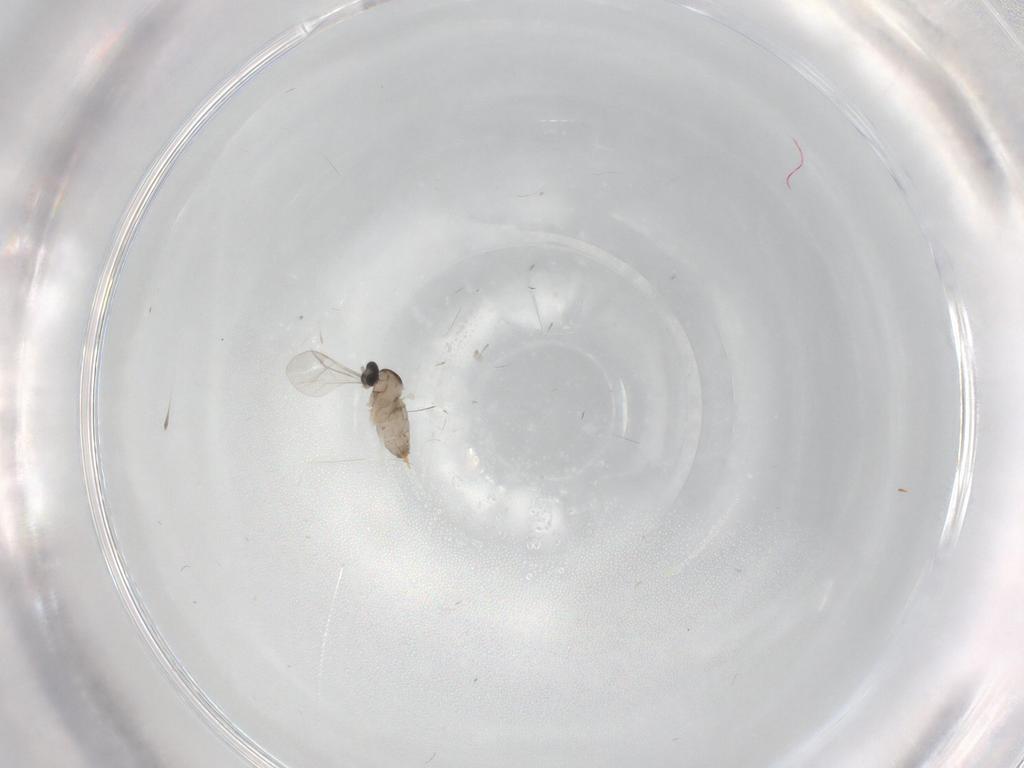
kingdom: Animalia
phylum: Arthropoda
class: Insecta
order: Diptera
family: Cecidomyiidae
